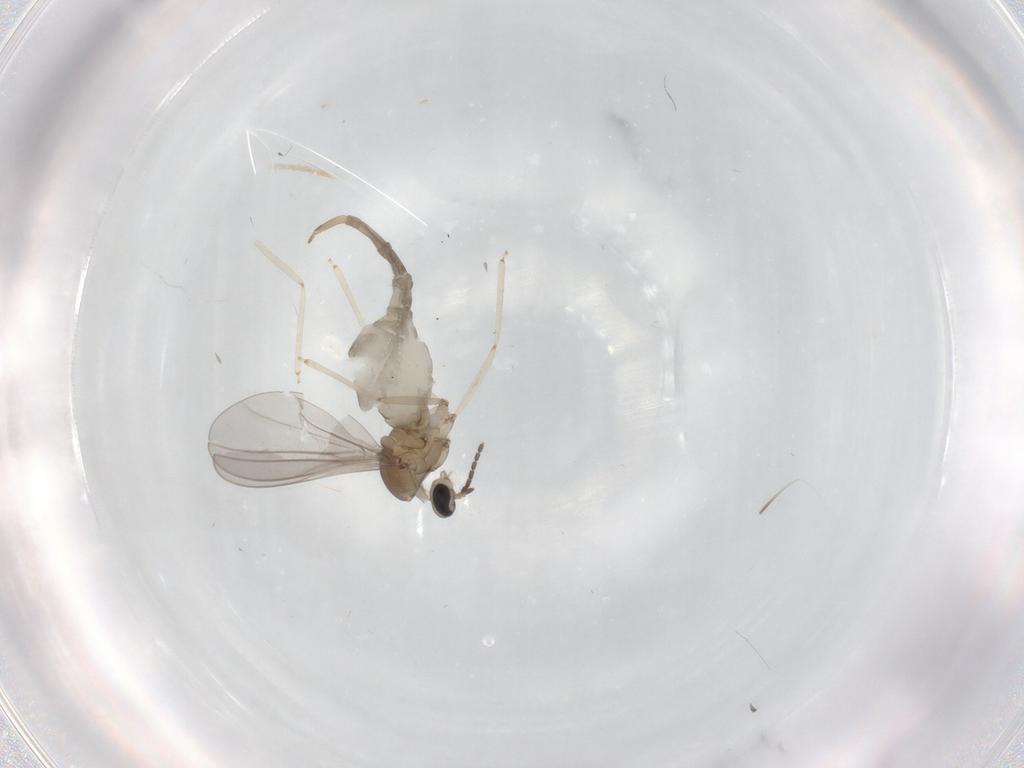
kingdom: Animalia
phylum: Arthropoda
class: Insecta
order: Diptera
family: Cecidomyiidae
